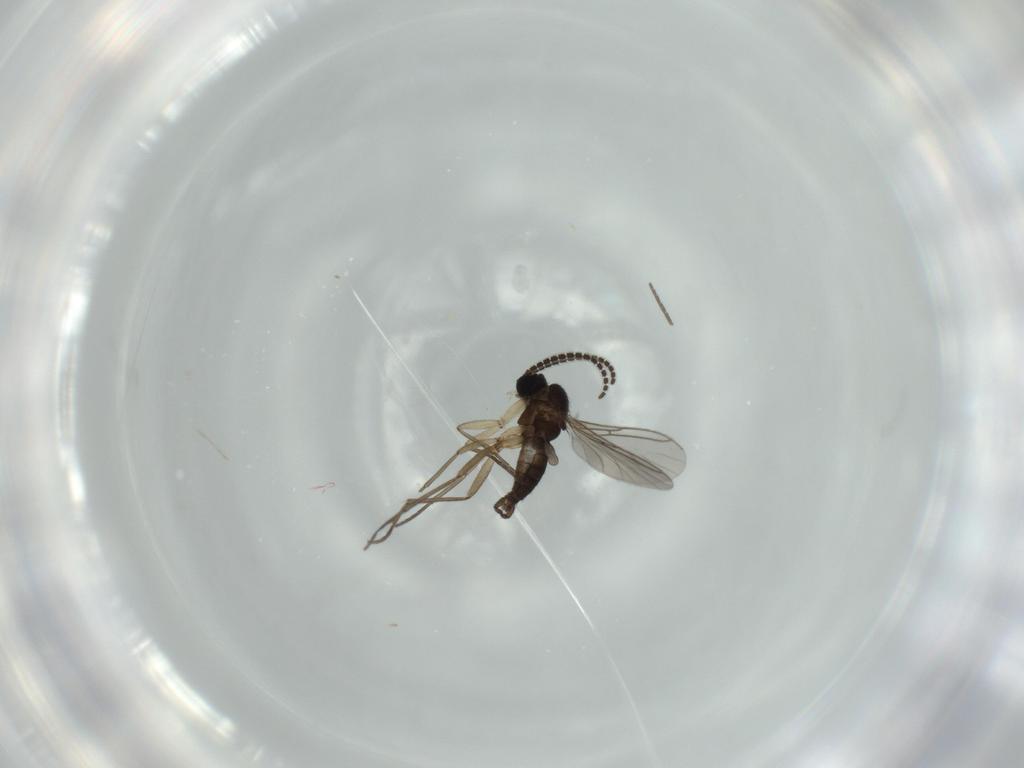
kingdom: Animalia
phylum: Arthropoda
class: Insecta
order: Diptera
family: Sciaridae
